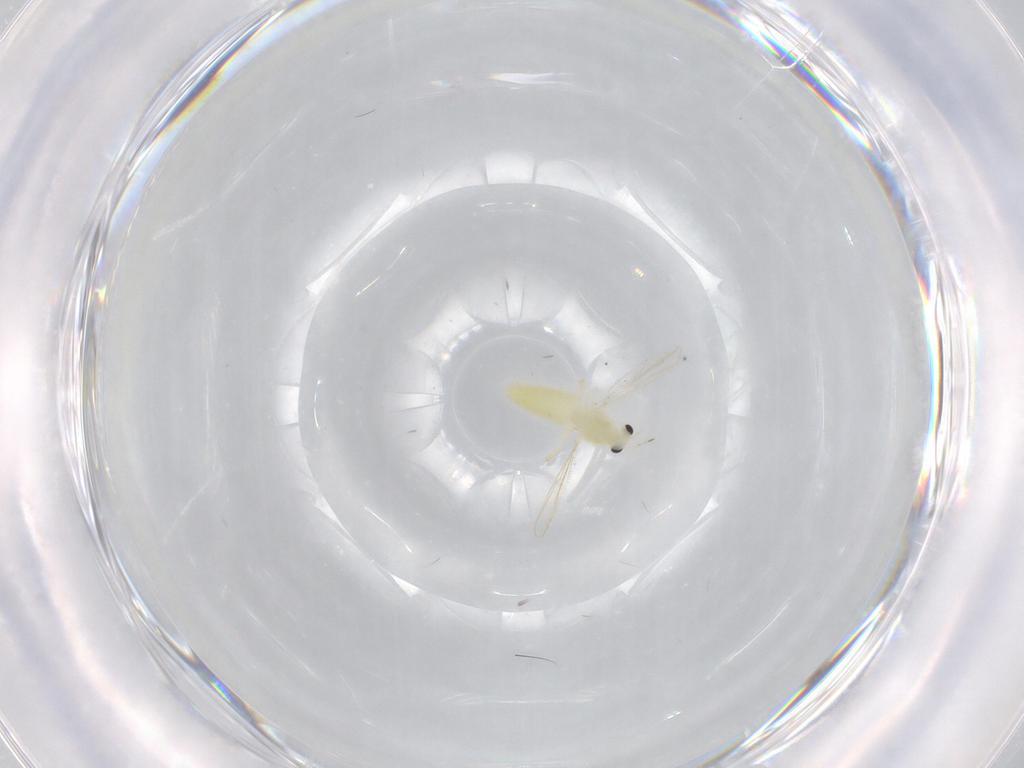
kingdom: Animalia
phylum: Arthropoda
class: Insecta
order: Diptera
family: Chironomidae
